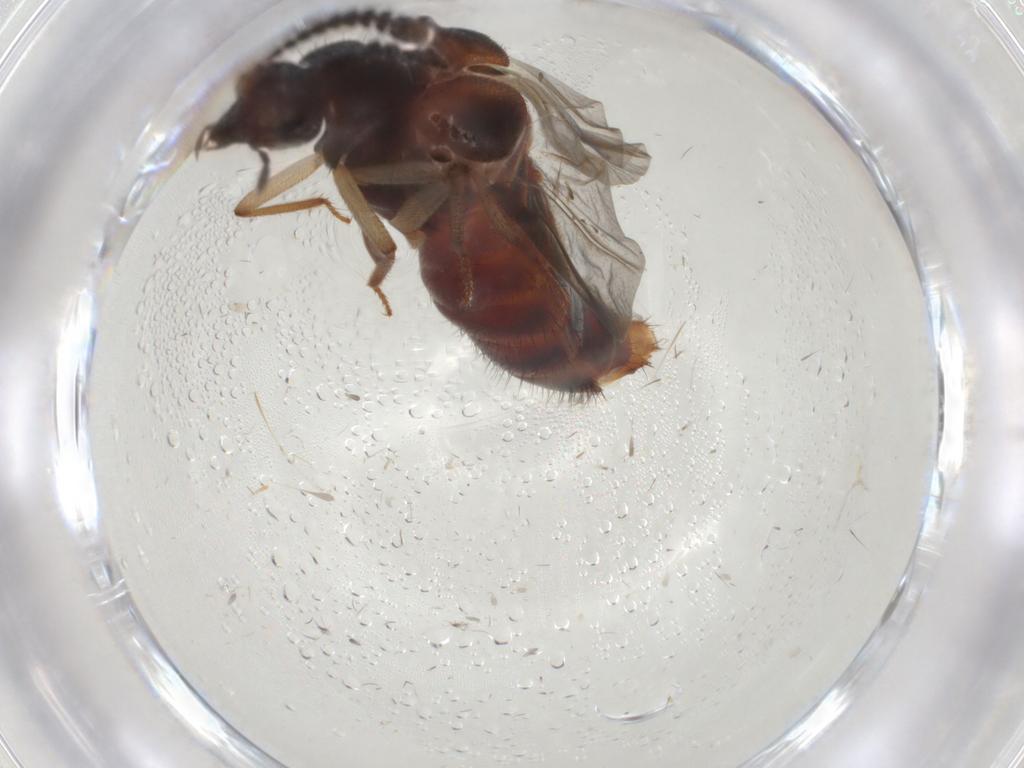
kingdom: Animalia
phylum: Arthropoda
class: Insecta
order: Coleoptera
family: Staphylinidae
